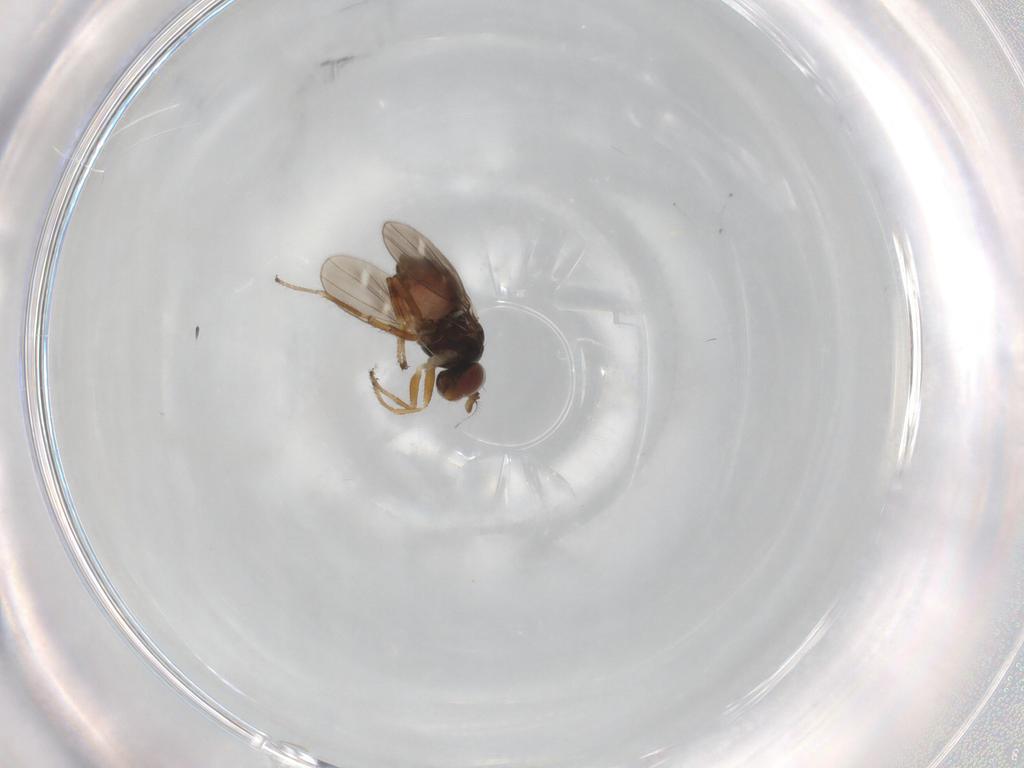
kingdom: Animalia
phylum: Arthropoda
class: Insecta
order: Diptera
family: Ephydridae
